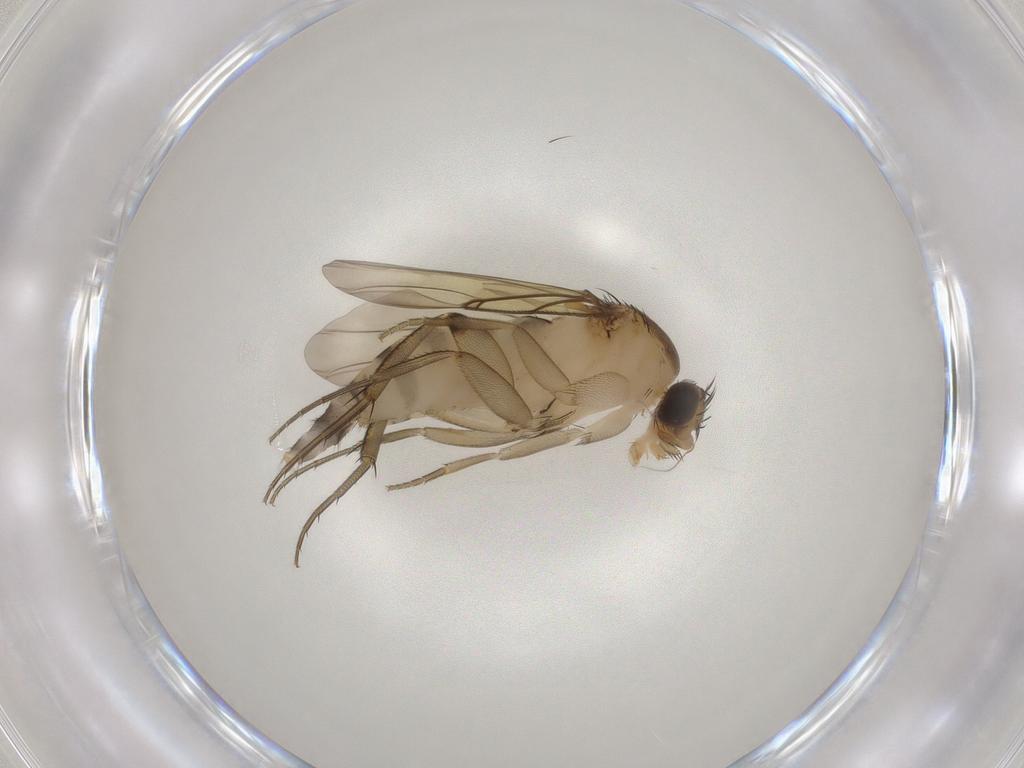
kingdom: Animalia
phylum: Arthropoda
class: Insecta
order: Diptera
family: Phoridae
